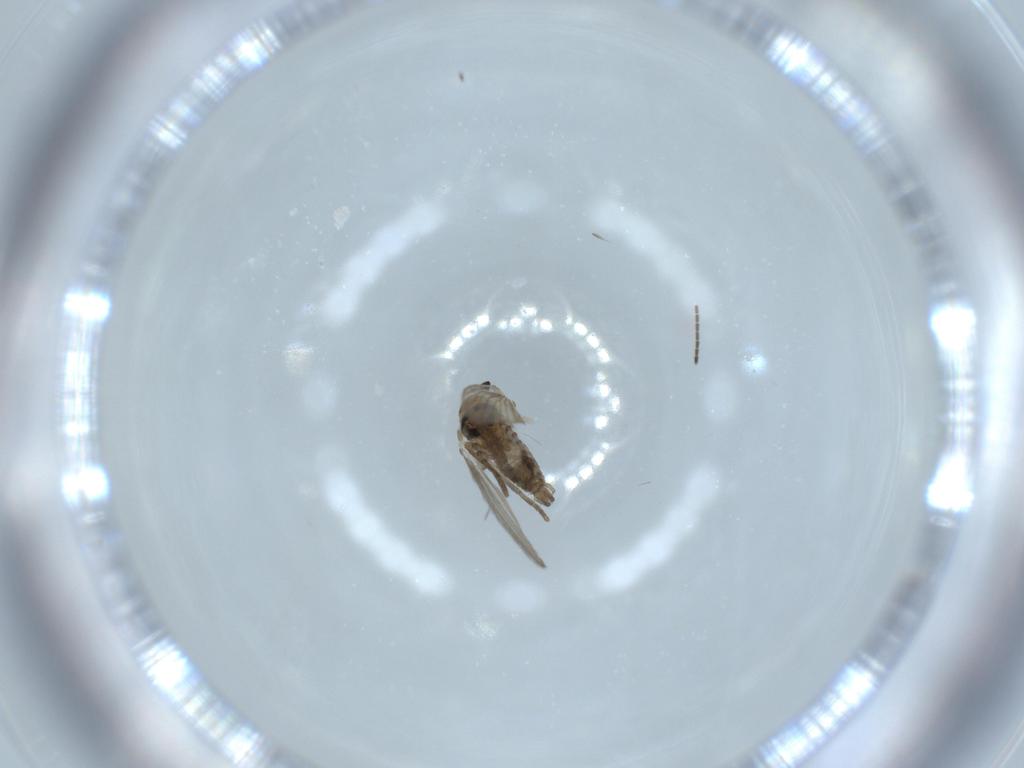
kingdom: Animalia
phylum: Arthropoda
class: Insecta
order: Diptera
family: Psychodidae
